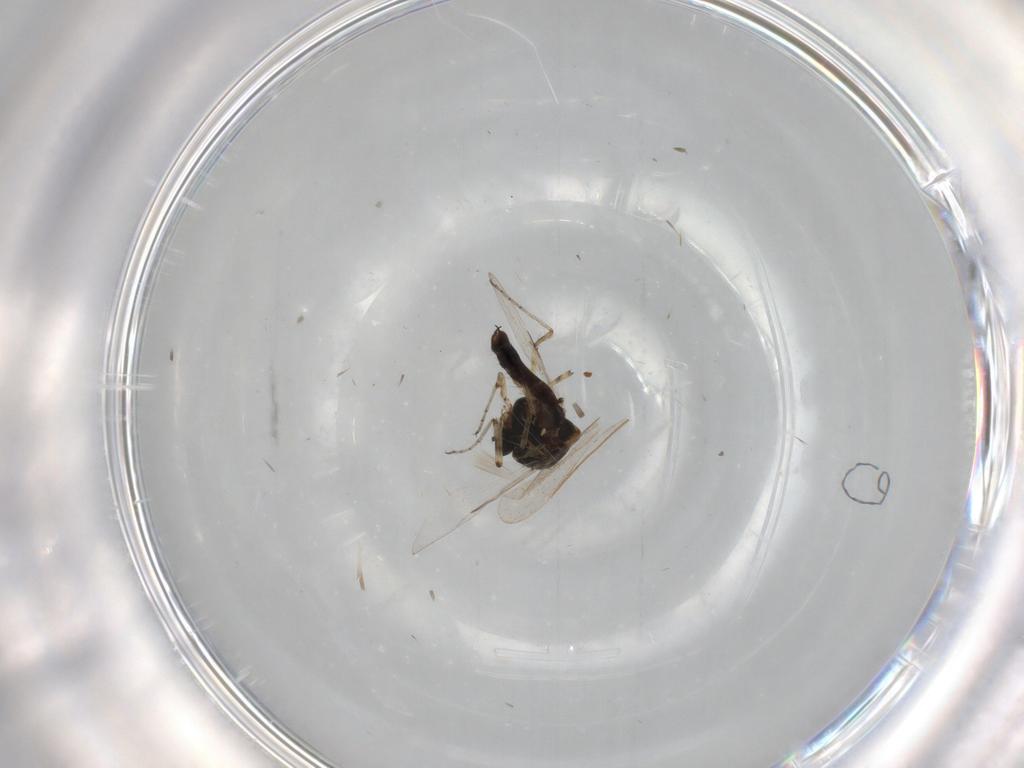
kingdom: Animalia
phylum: Arthropoda
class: Insecta
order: Diptera
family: Ceratopogonidae
